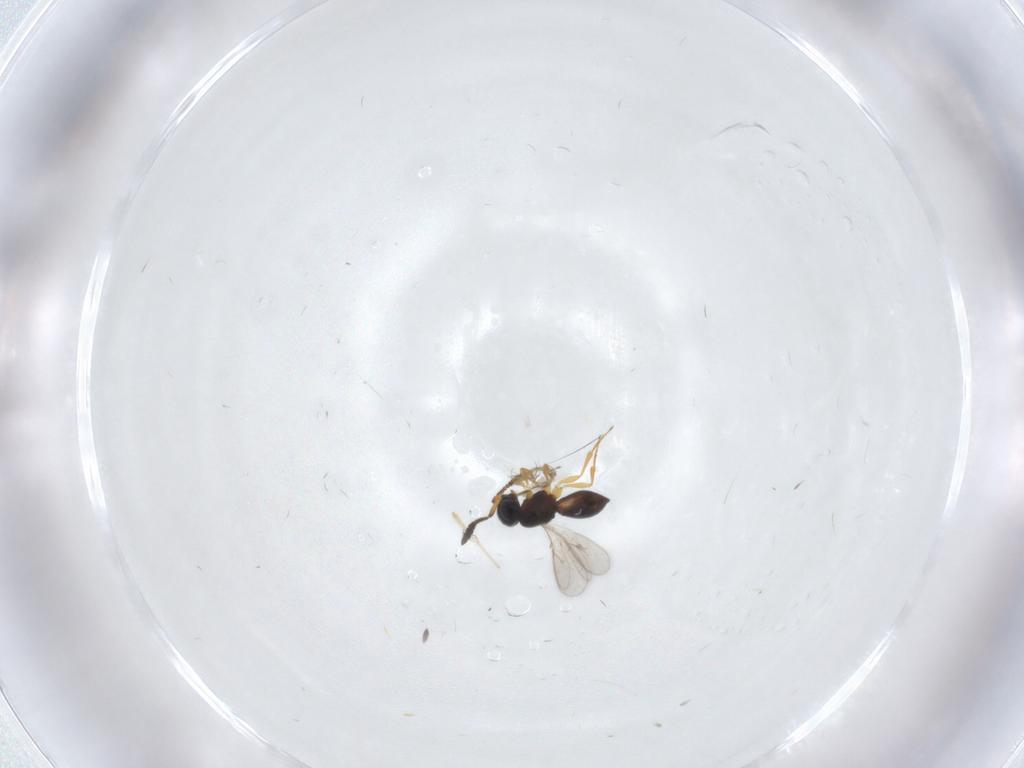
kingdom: Animalia
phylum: Arthropoda
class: Insecta
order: Hymenoptera
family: Scelionidae
